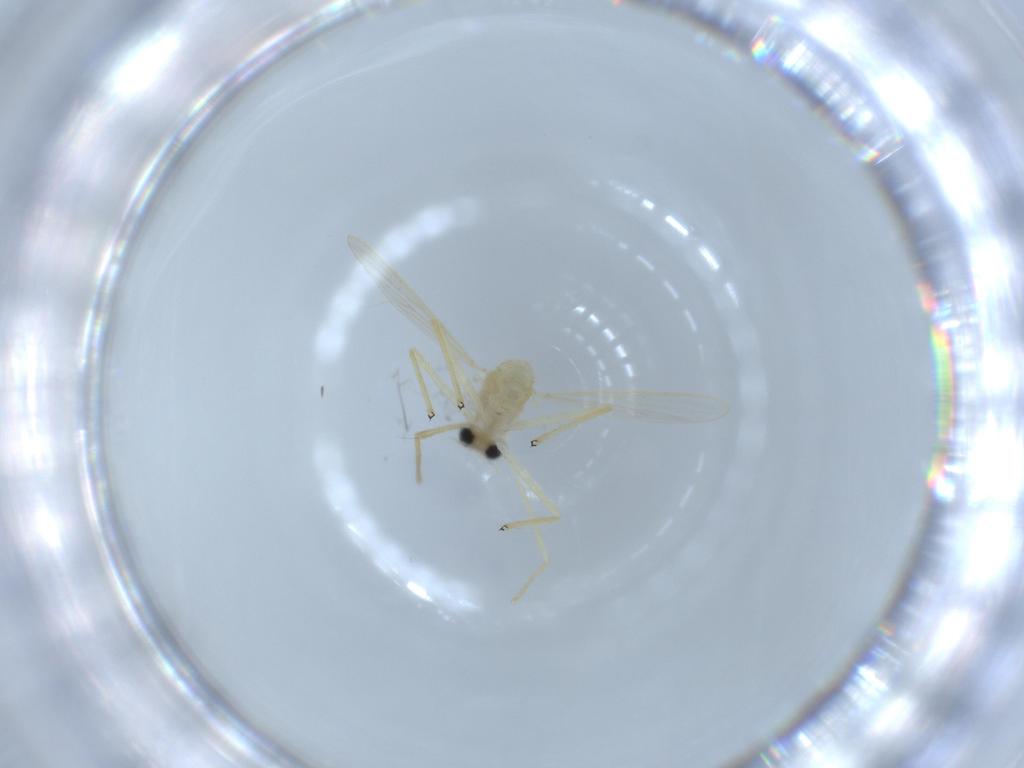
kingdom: Animalia
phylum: Arthropoda
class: Insecta
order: Diptera
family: Chironomidae
